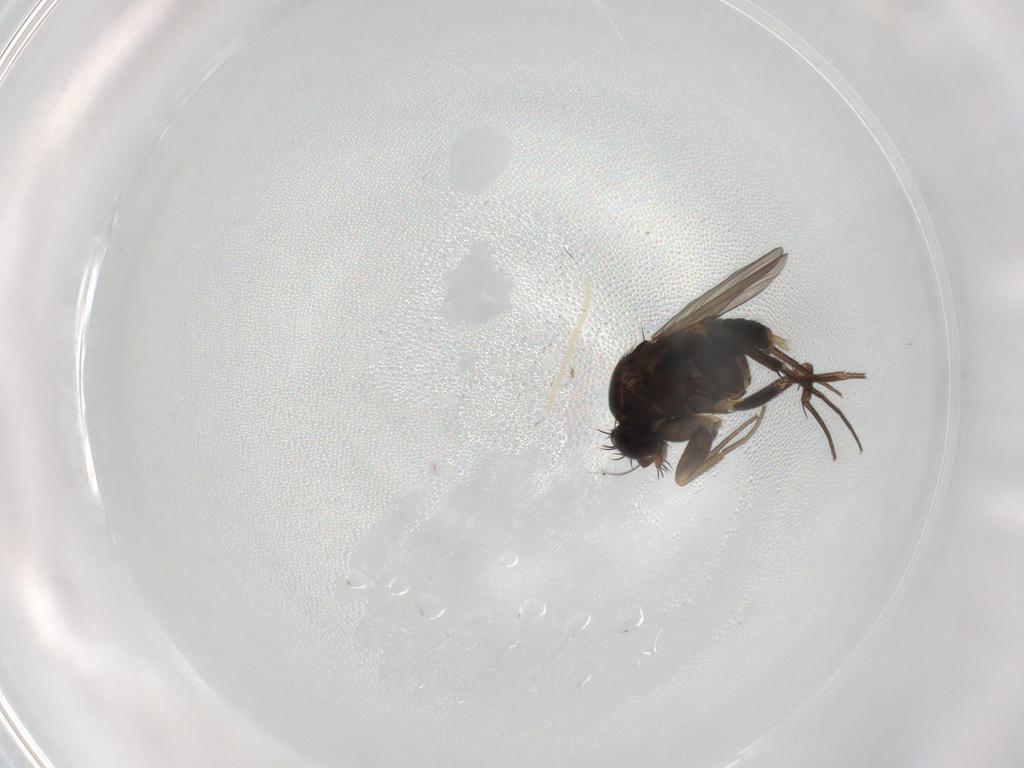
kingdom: Animalia
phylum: Arthropoda
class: Insecta
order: Diptera
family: Phoridae
